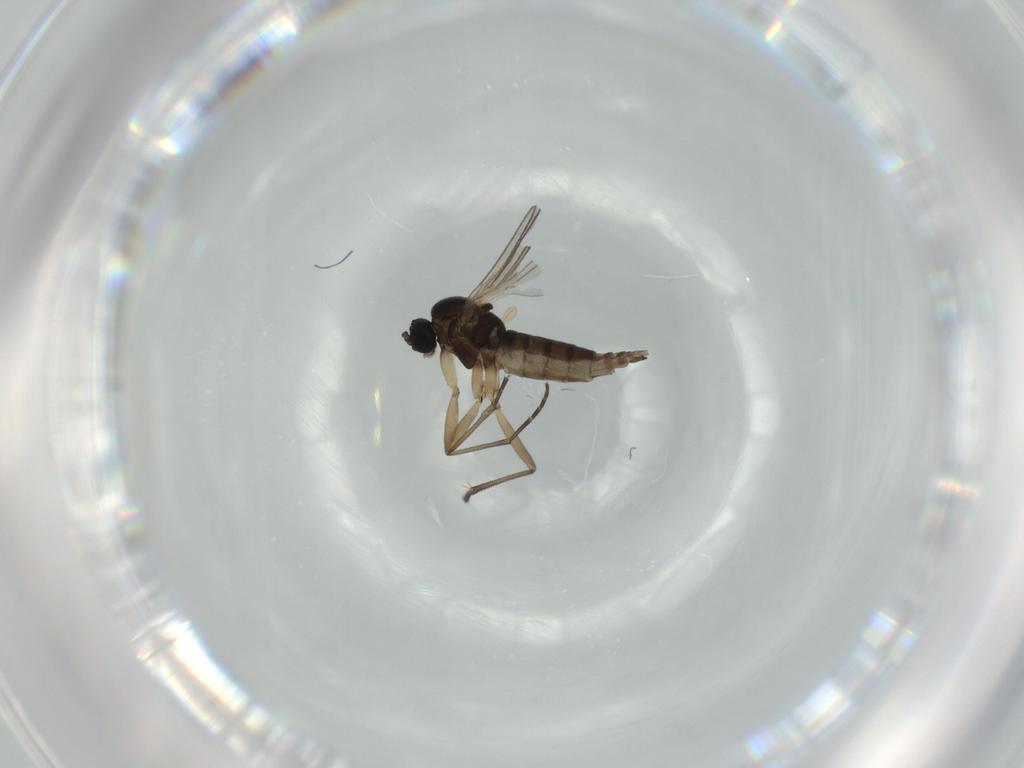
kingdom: Animalia
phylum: Arthropoda
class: Insecta
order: Diptera
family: Sciaridae
